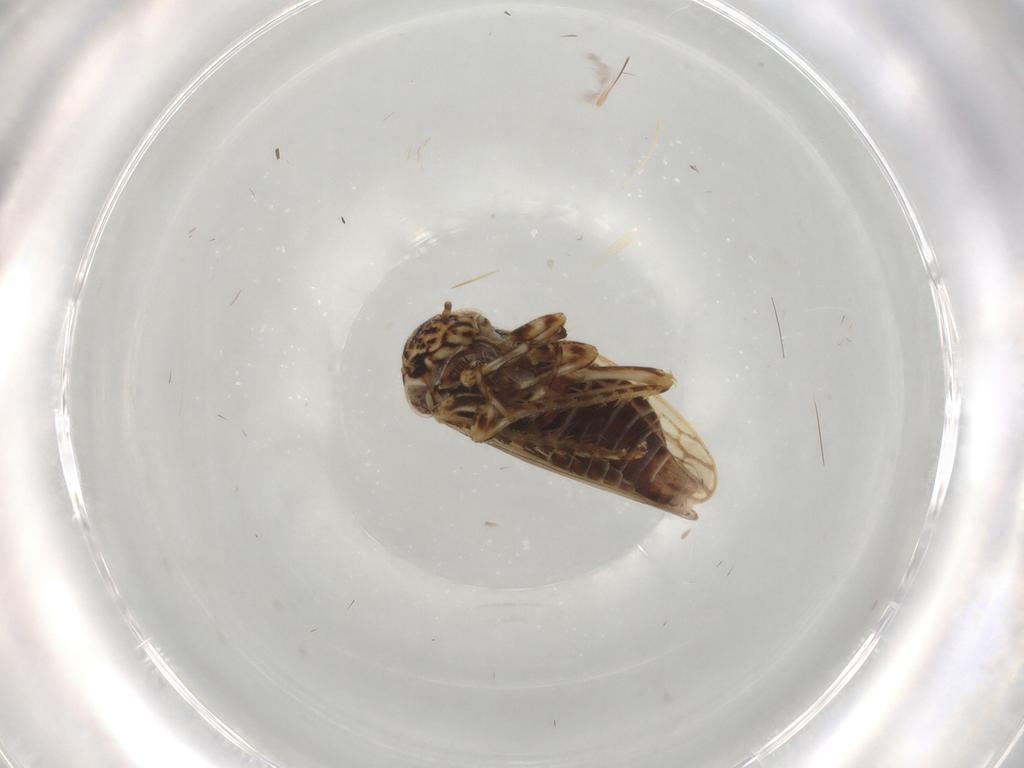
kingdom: Animalia
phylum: Arthropoda
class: Insecta
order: Hemiptera
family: Cicadellidae
